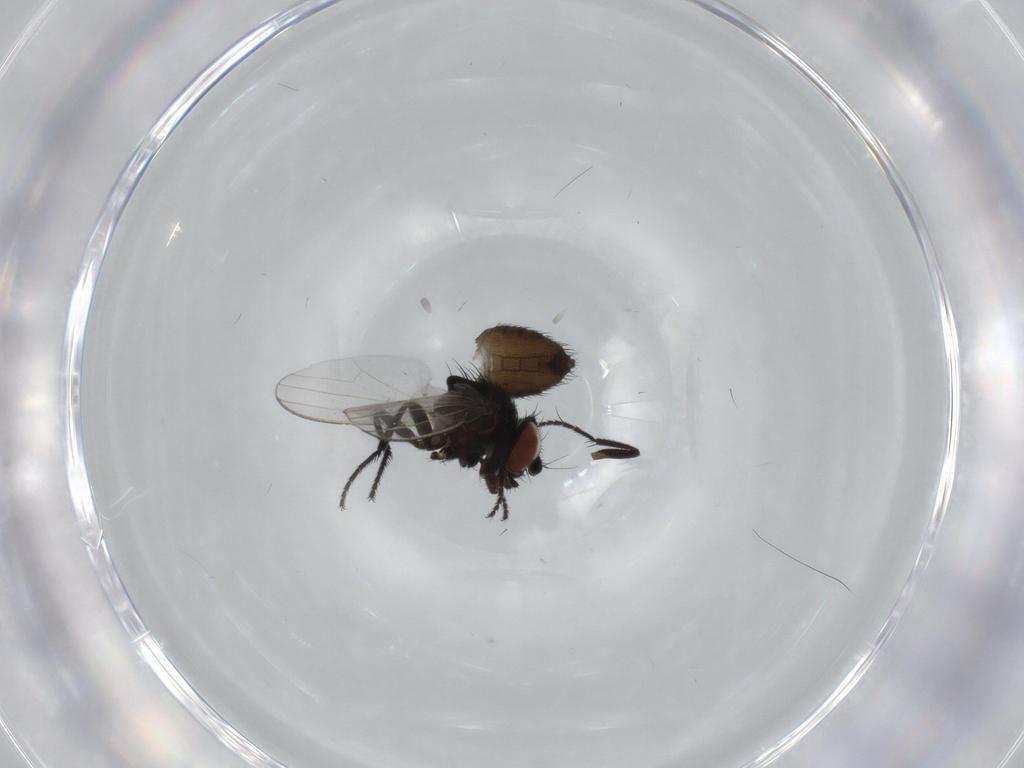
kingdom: Animalia
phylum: Arthropoda
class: Insecta
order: Diptera
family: Milichiidae
